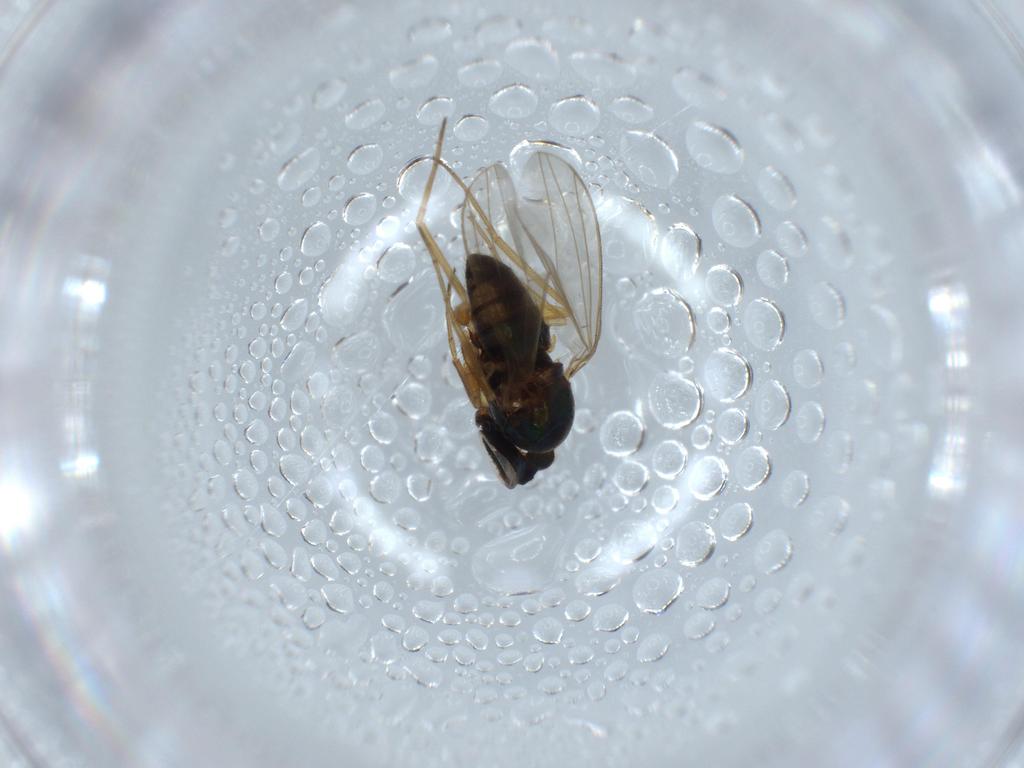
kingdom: Animalia
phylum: Arthropoda
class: Insecta
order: Diptera
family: Dolichopodidae
